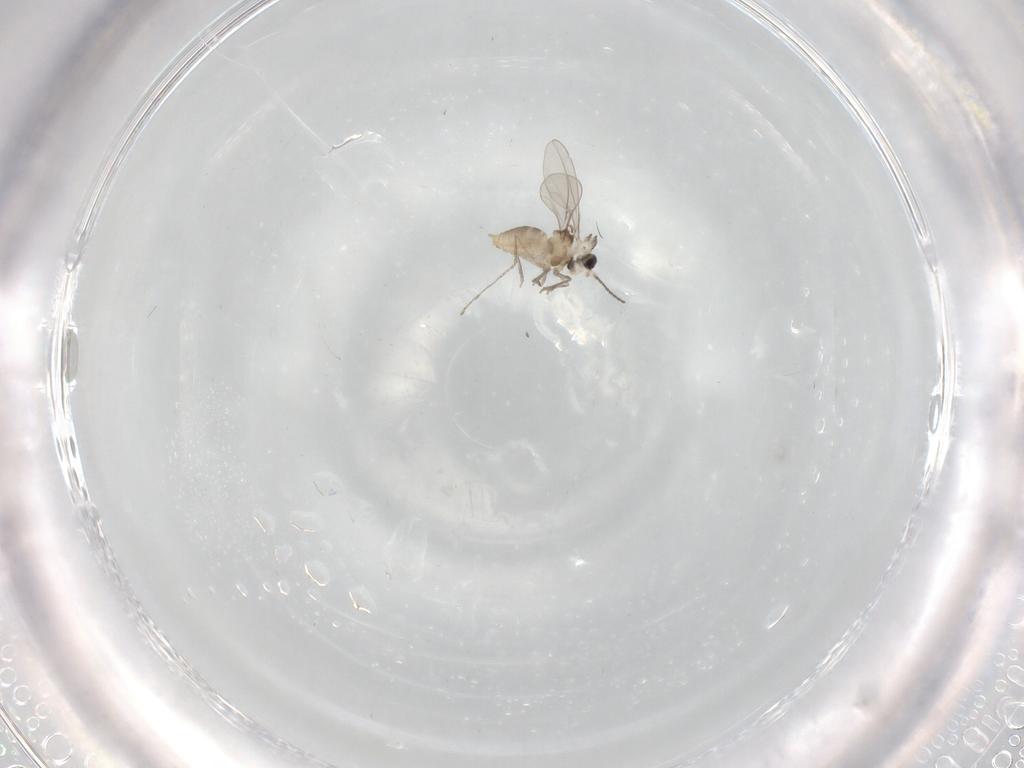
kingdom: Animalia
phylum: Arthropoda
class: Insecta
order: Diptera
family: Cecidomyiidae
